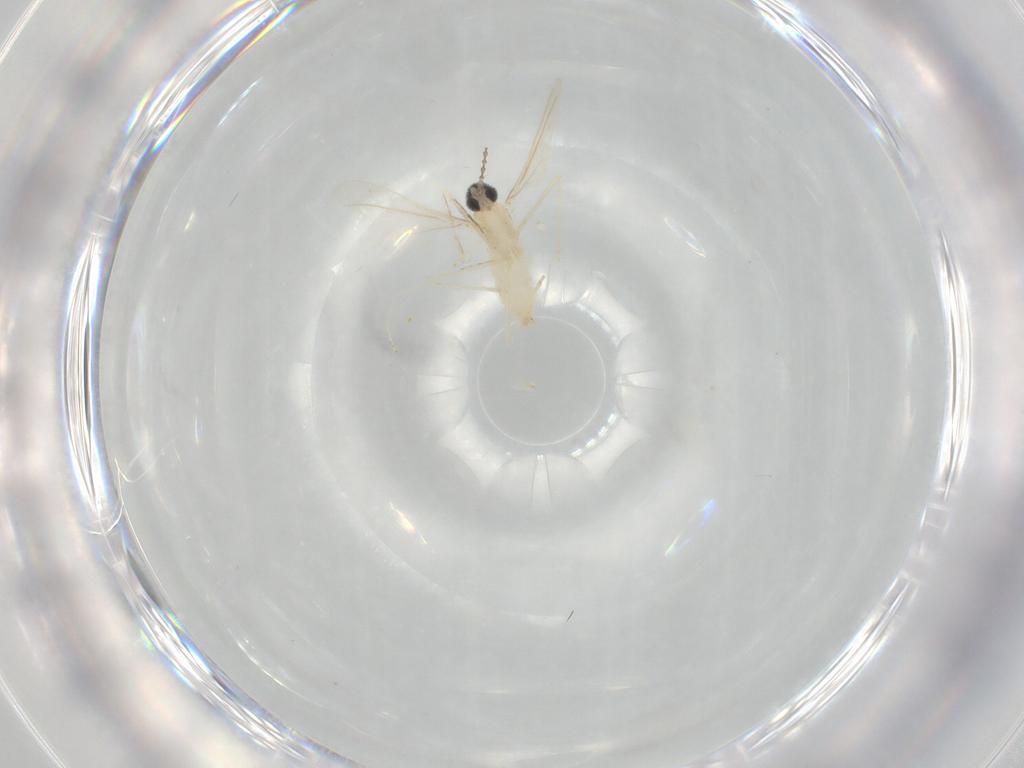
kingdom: Animalia
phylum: Arthropoda
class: Insecta
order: Diptera
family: Cecidomyiidae
